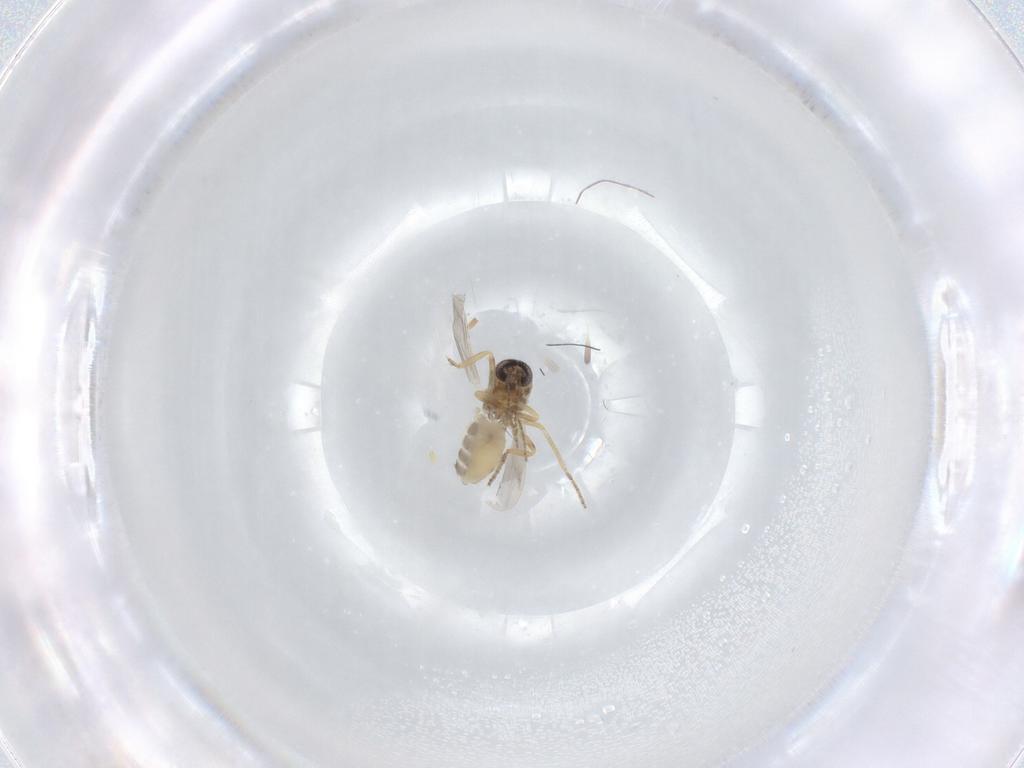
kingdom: Animalia
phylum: Arthropoda
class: Insecta
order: Diptera
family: Ceratopogonidae
